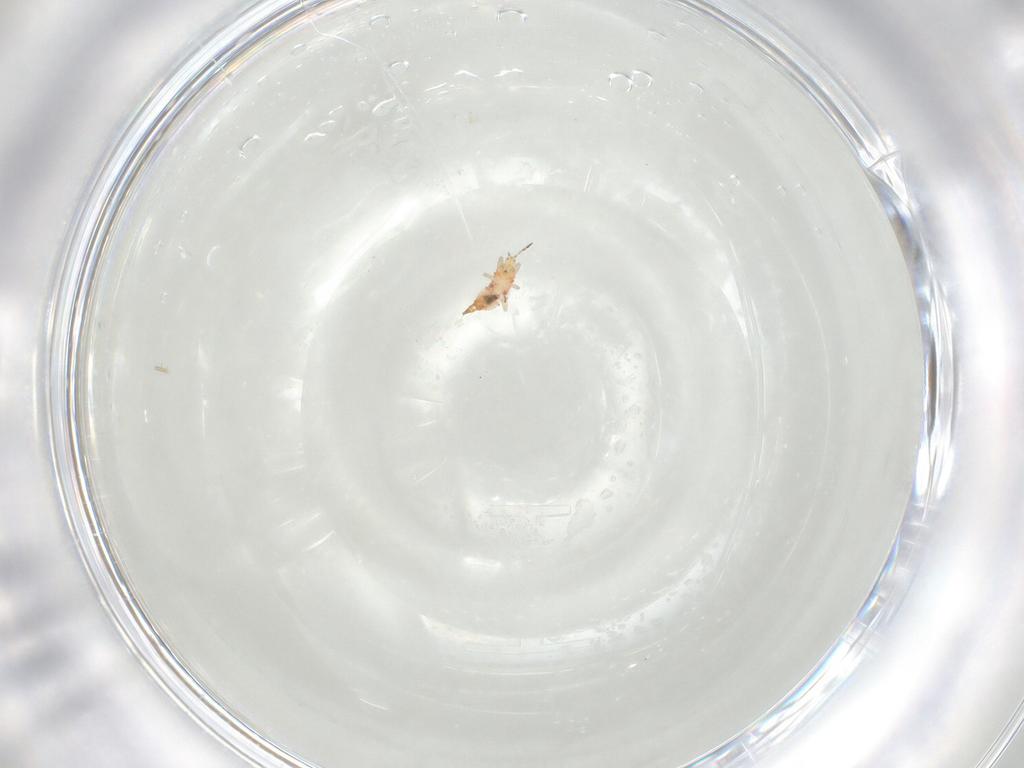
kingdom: Animalia
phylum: Arthropoda
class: Insecta
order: Thysanoptera
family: Phlaeothripidae
